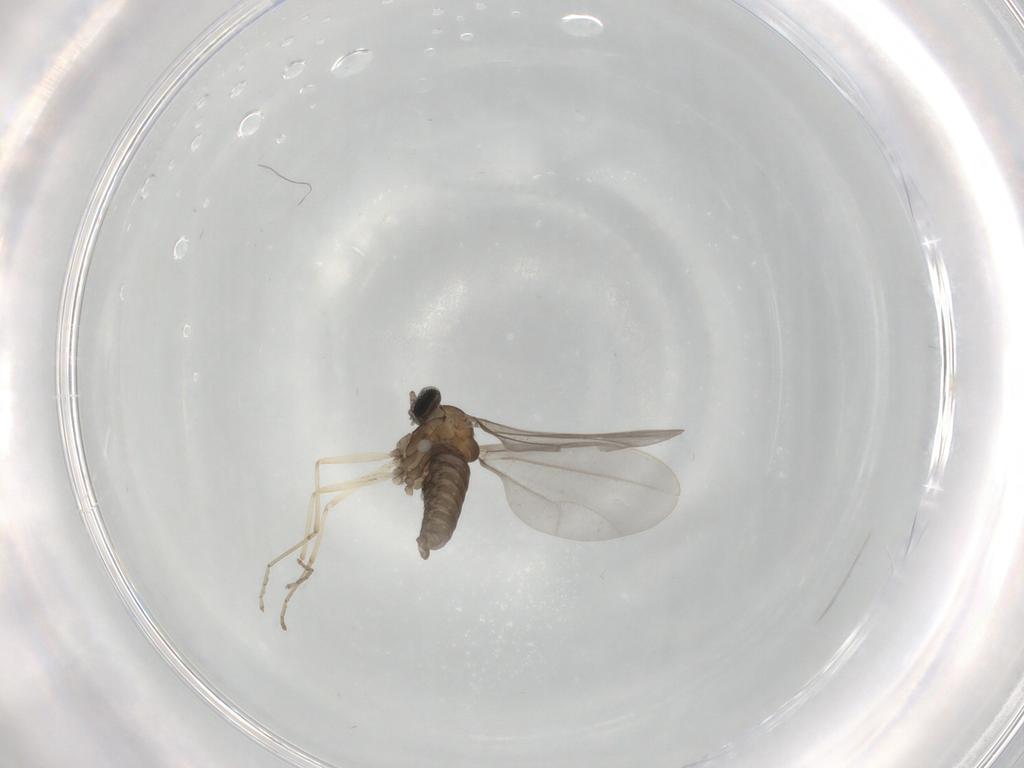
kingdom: Animalia
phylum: Arthropoda
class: Insecta
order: Diptera
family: Cecidomyiidae
